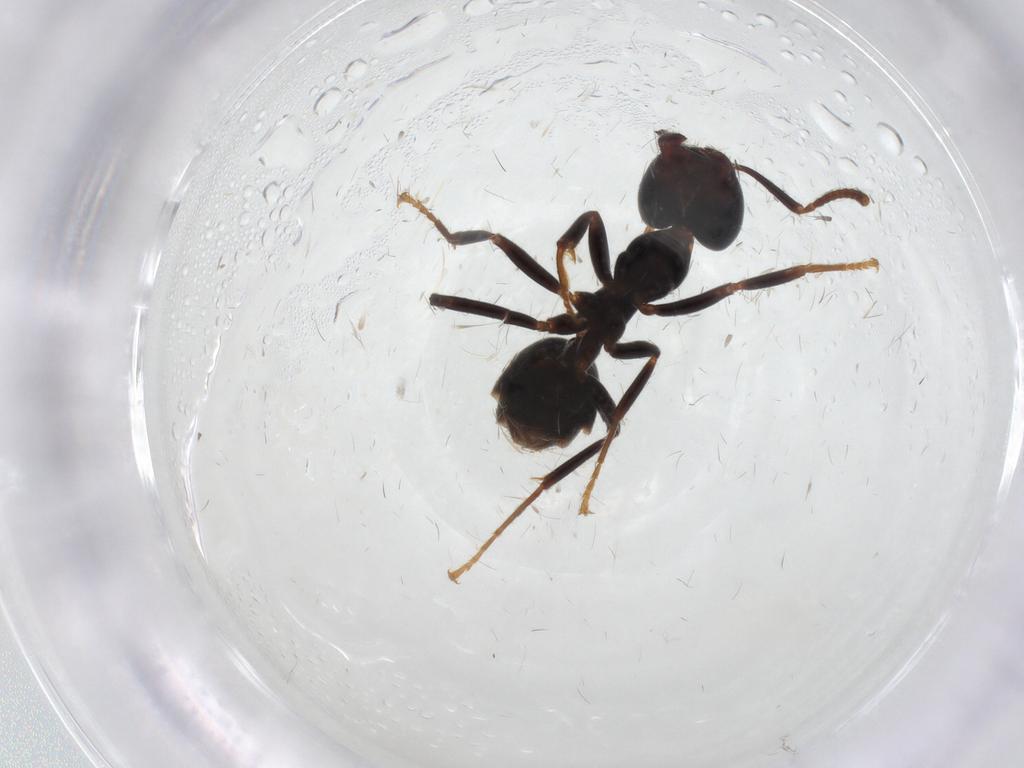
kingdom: Animalia
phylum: Arthropoda
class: Insecta
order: Hymenoptera
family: Formicidae
